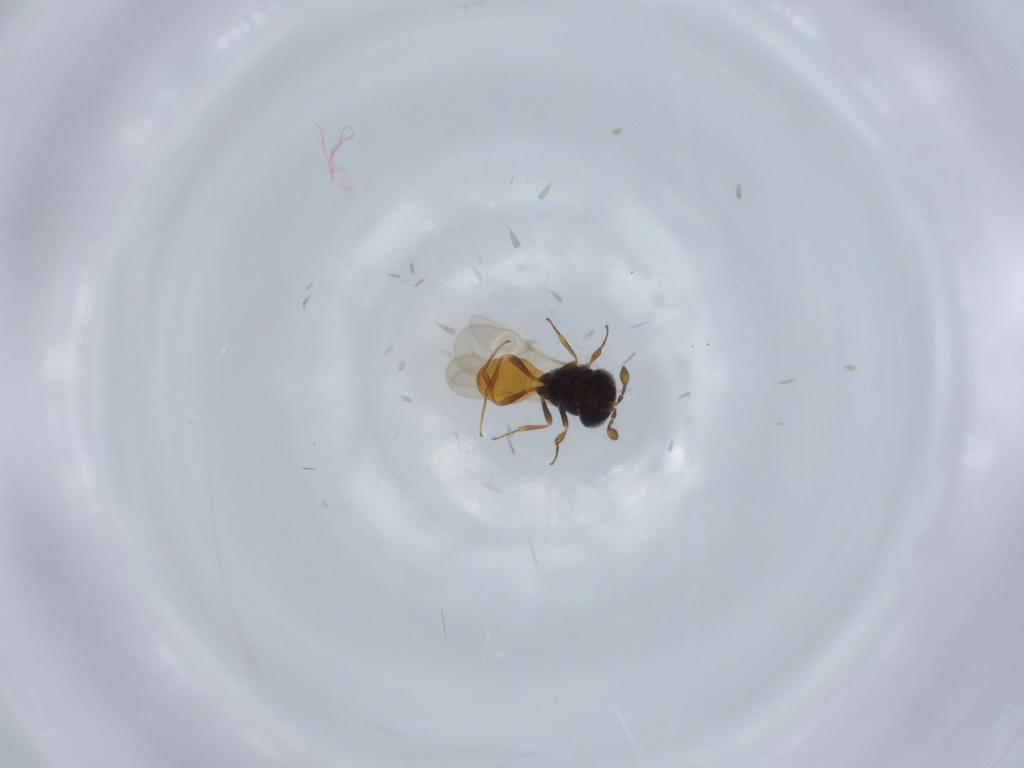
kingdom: Animalia
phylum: Arthropoda
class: Insecta
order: Hymenoptera
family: Scelionidae
